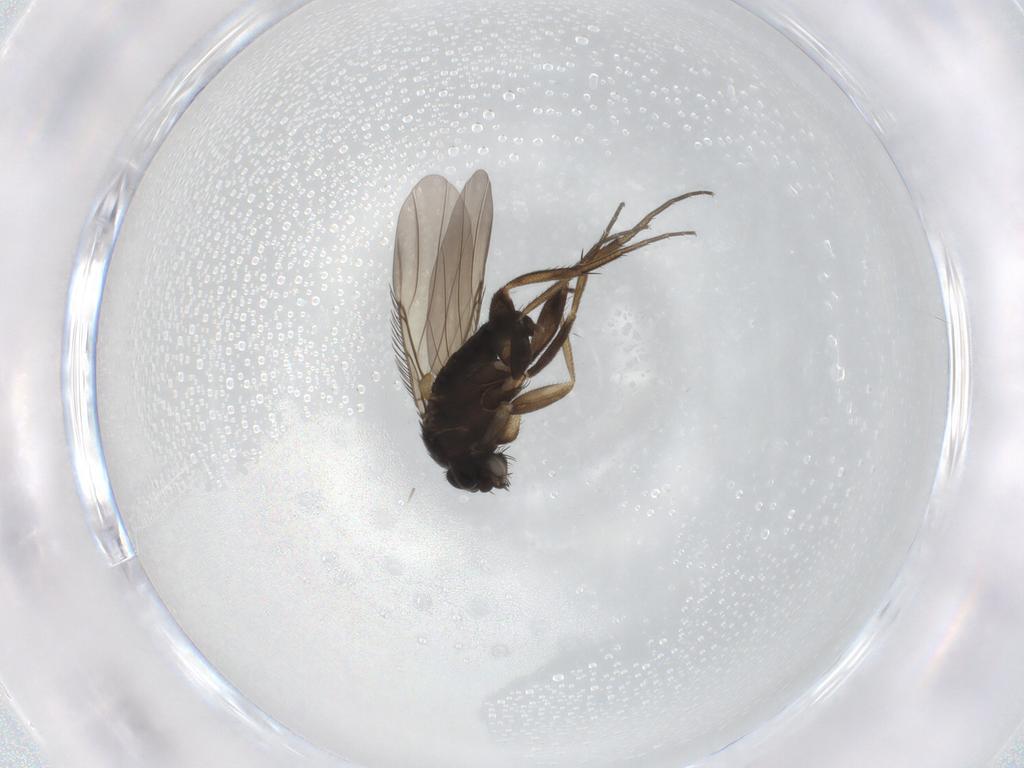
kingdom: Animalia
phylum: Arthropoda
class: Insecta
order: Diptera
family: Phoridae
